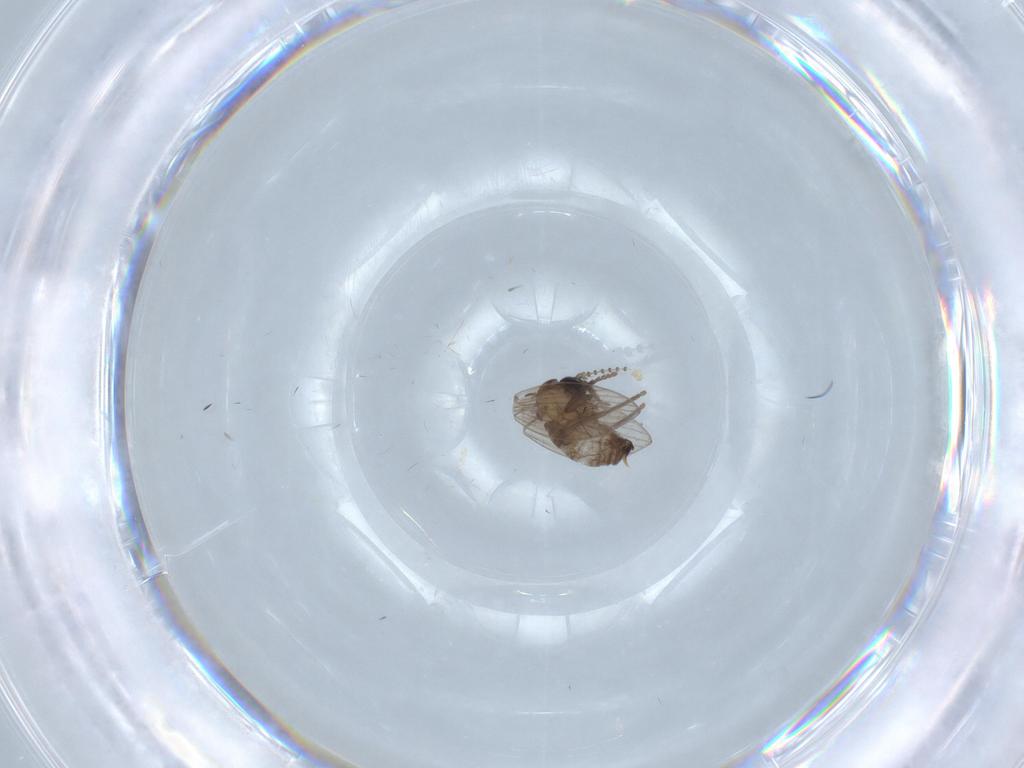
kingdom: Animalia
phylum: Arthropoda
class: Insecta
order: Diptera
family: Psychodidae
